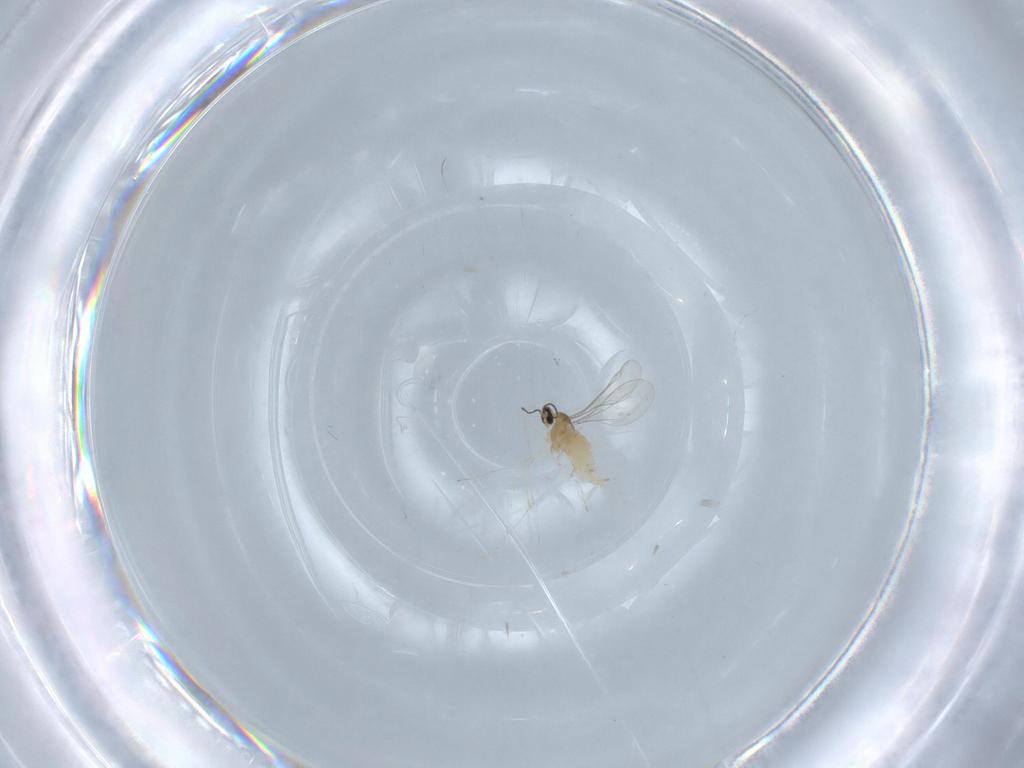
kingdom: Animalia
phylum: Arthropoda
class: Insecta
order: Diptera
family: Cecidomyiidae
